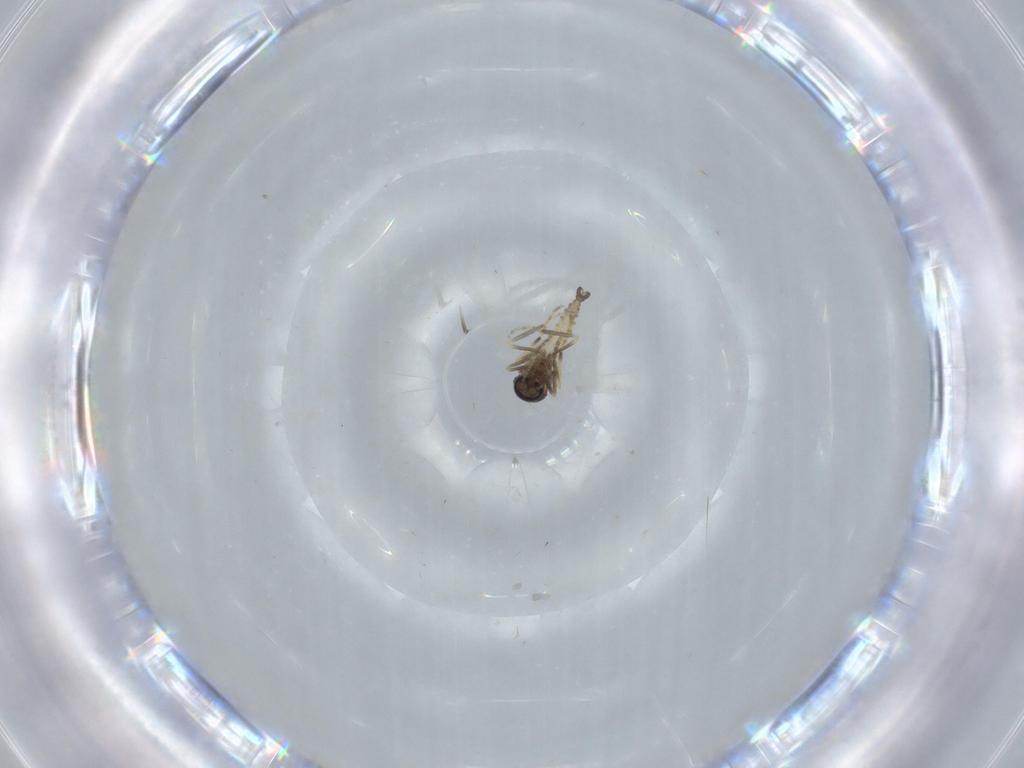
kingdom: Animalia
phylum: Arthropoda
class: Insecta
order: Diptera
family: Ceratopogonidae
